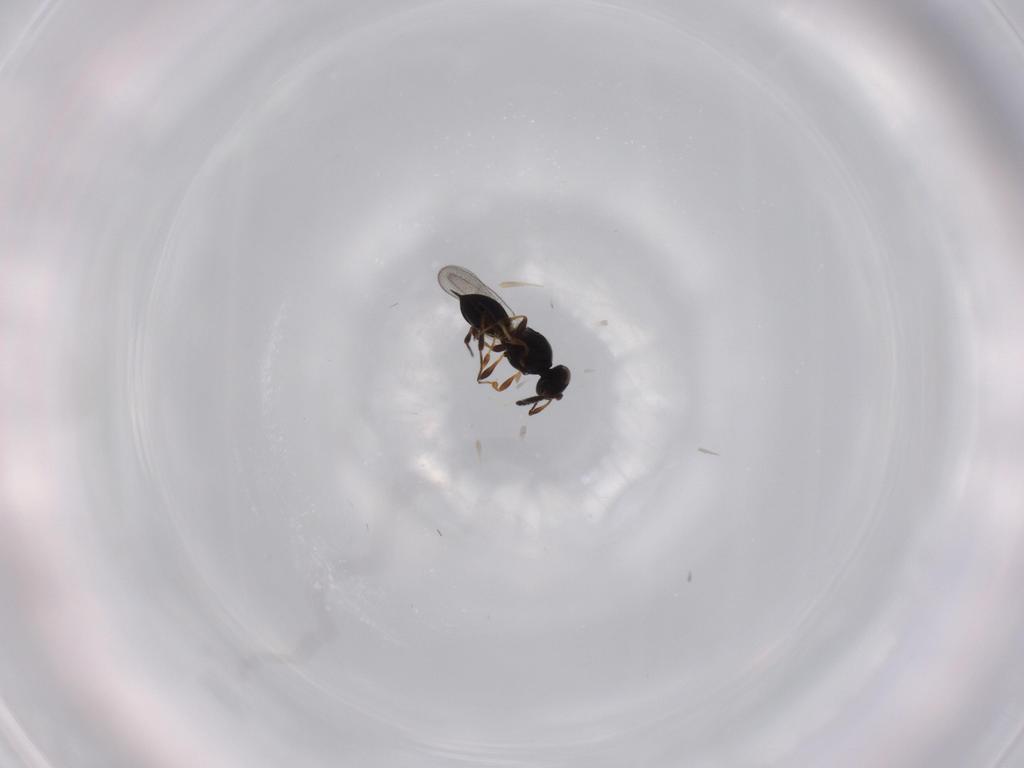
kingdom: Animalia
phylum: Arthropoda
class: Insecta
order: Hymenoptera
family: Platygastridae
